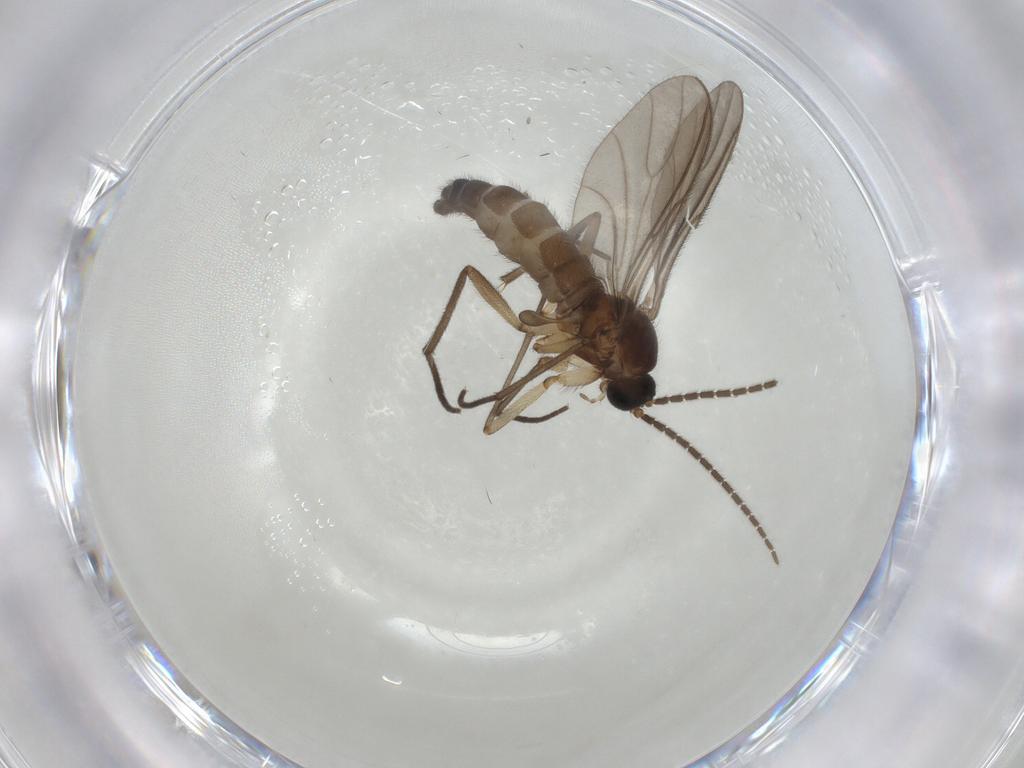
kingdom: Animalia
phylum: Arthropoda
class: Insecta
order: Diptera
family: Sciaridae
